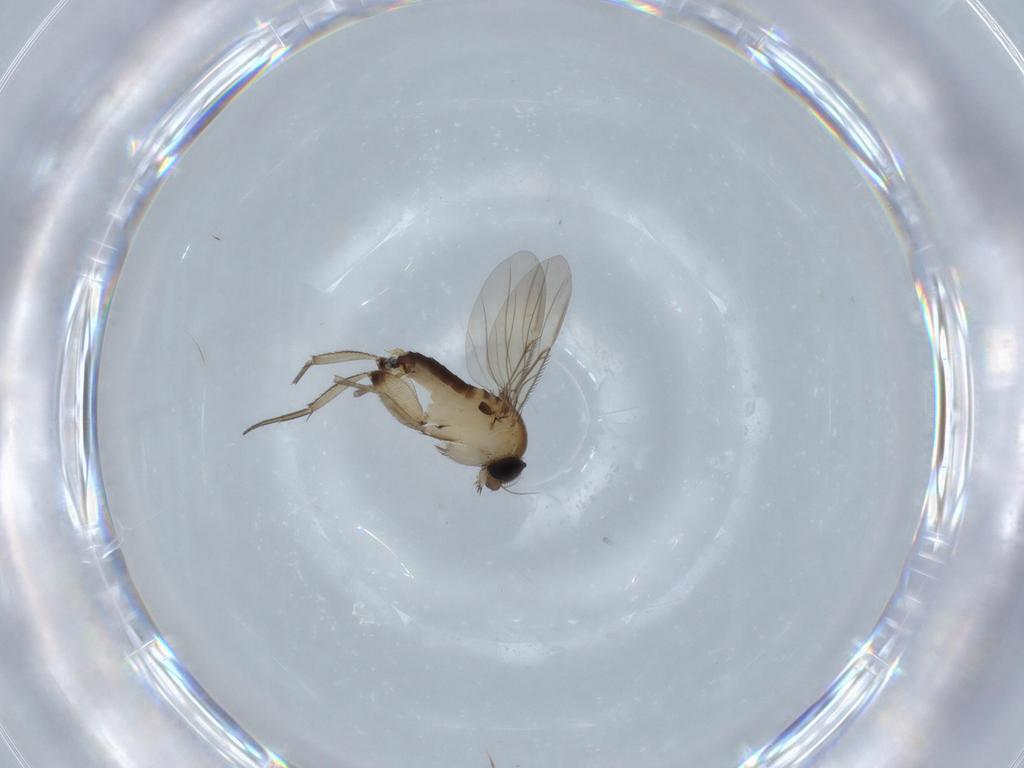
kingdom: Animalia
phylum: Arthropoda
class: Insecta
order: Diptera
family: Phoridae
